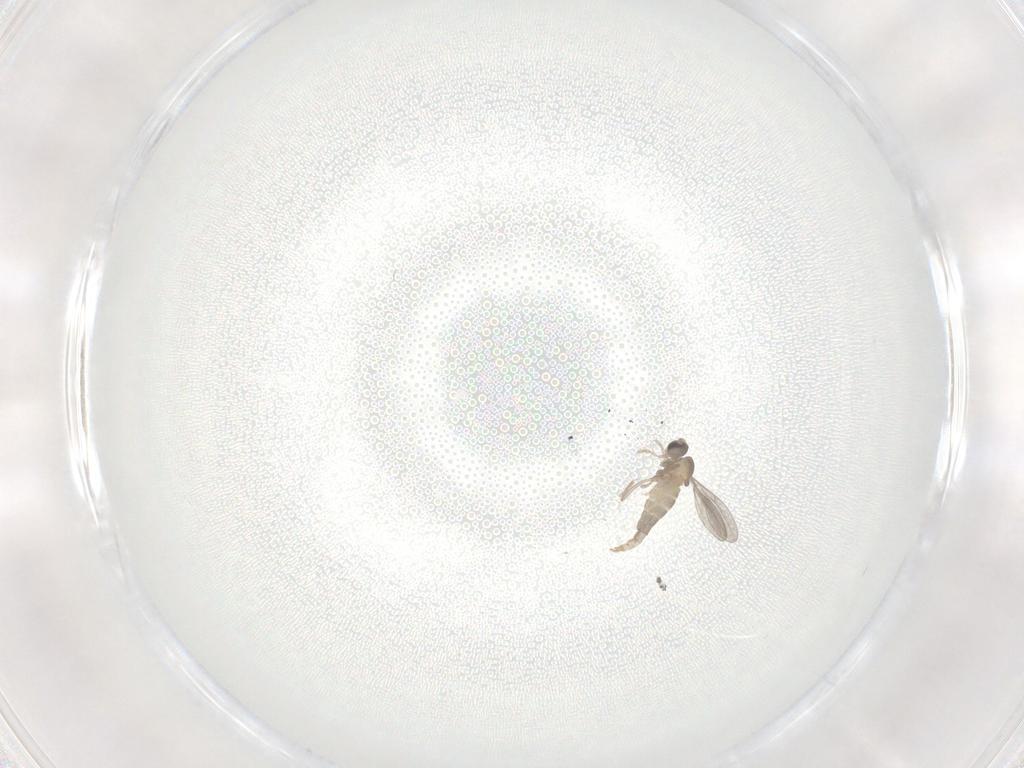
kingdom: Animalia
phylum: Arthropoda
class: Insecta
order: Diptera
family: Cecidomyiidae
